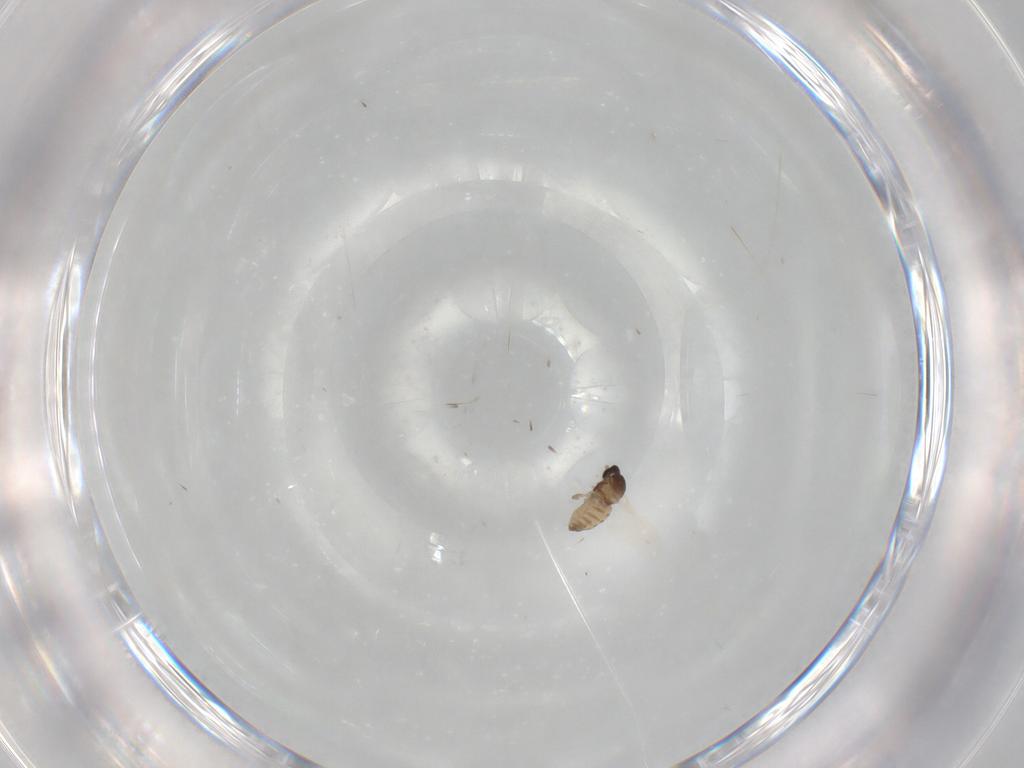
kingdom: Animalia
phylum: Arthropoda
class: Insecta
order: Diptera
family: Cecidomyiidae
